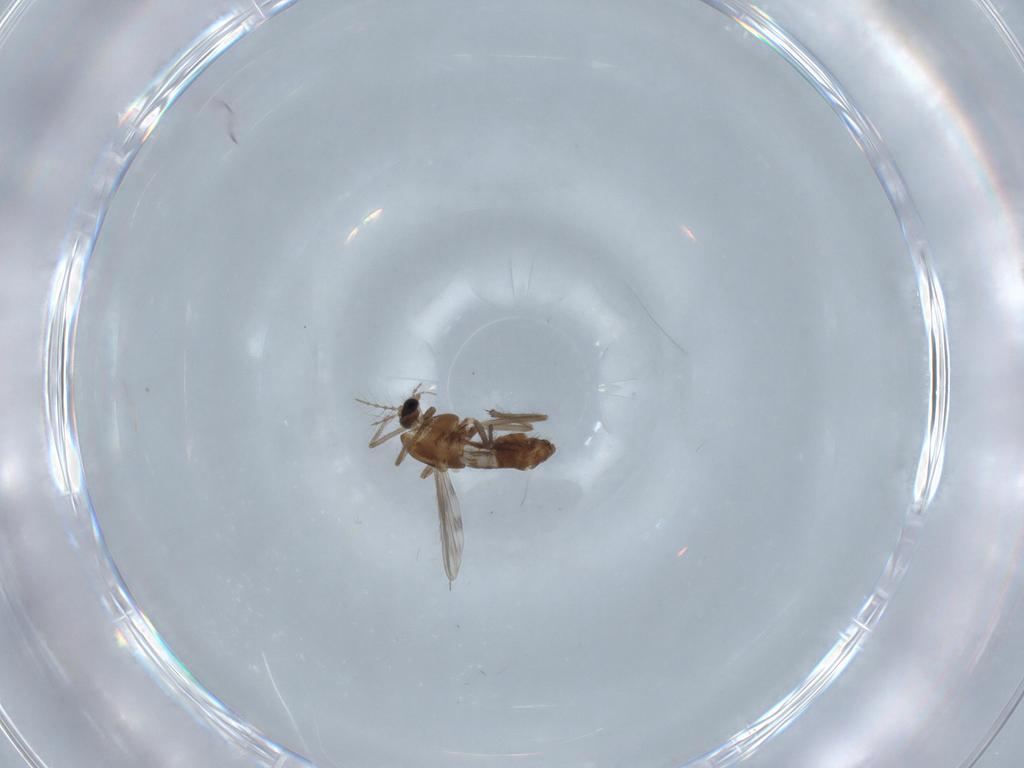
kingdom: Animalia
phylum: Arthropoda
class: Insecta
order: Diptera
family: Chironomidae
